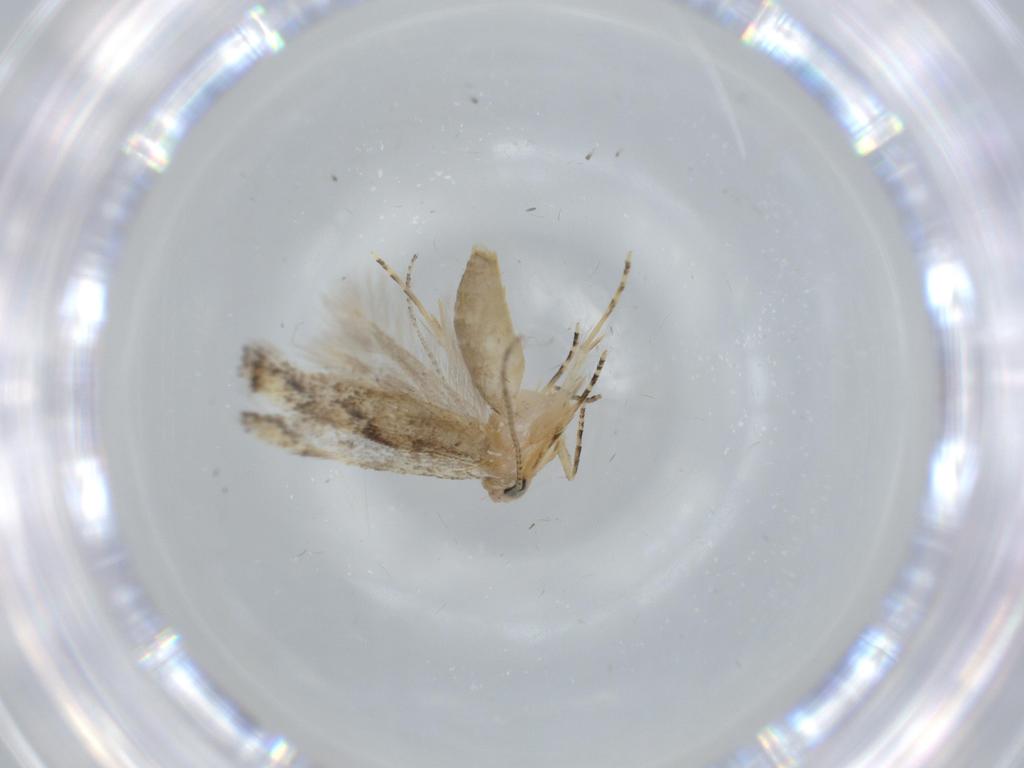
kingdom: Animalia
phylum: Arthropoda
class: Insecta
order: Lepidoptera
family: Bucculatricidae
